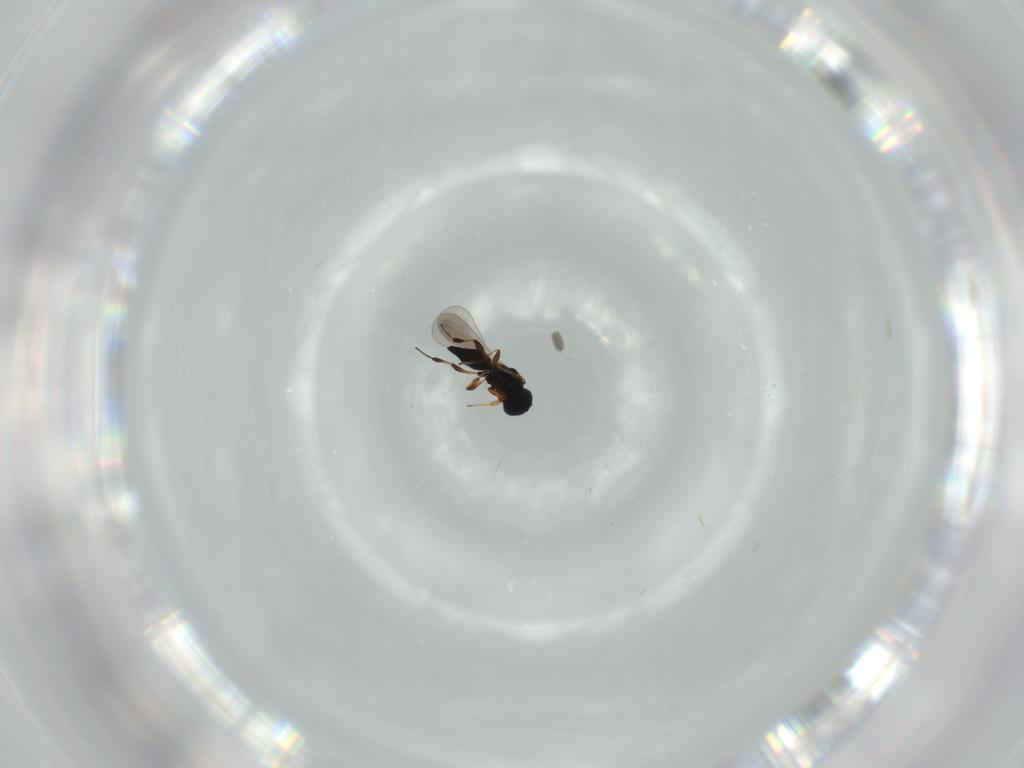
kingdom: Animalia
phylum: Arthropoda
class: Insecta
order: Hymenoptera
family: Platygastridae
